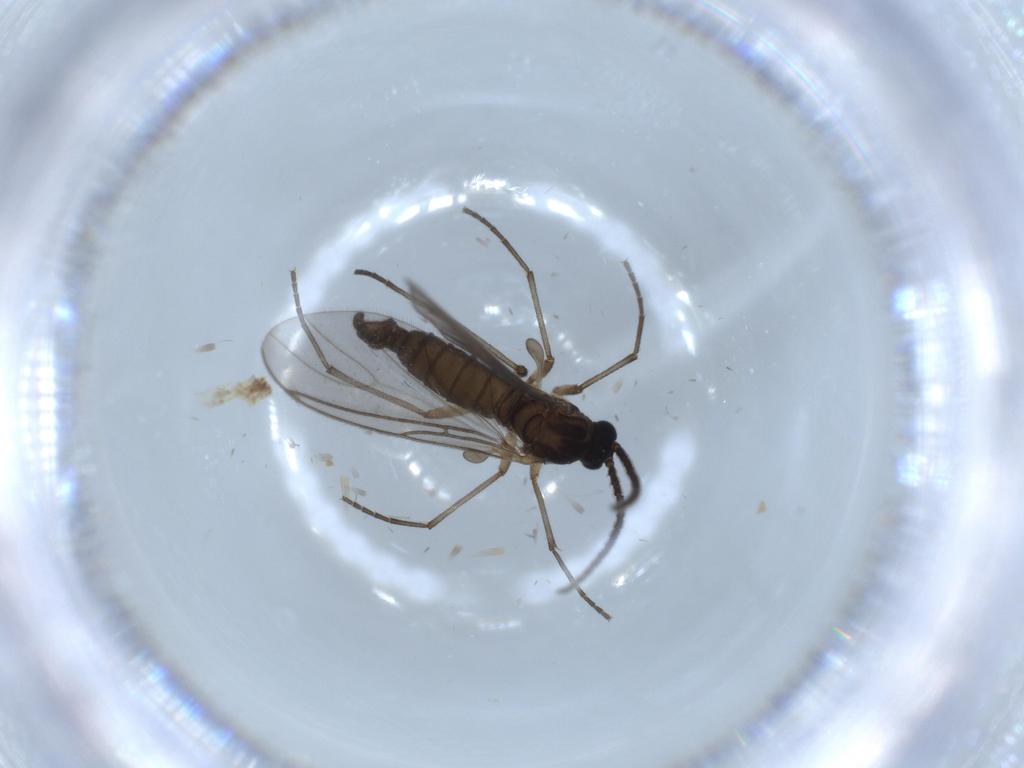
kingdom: Animalia
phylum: Arthropoda
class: Insecta
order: Diptera
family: Sciaridae
